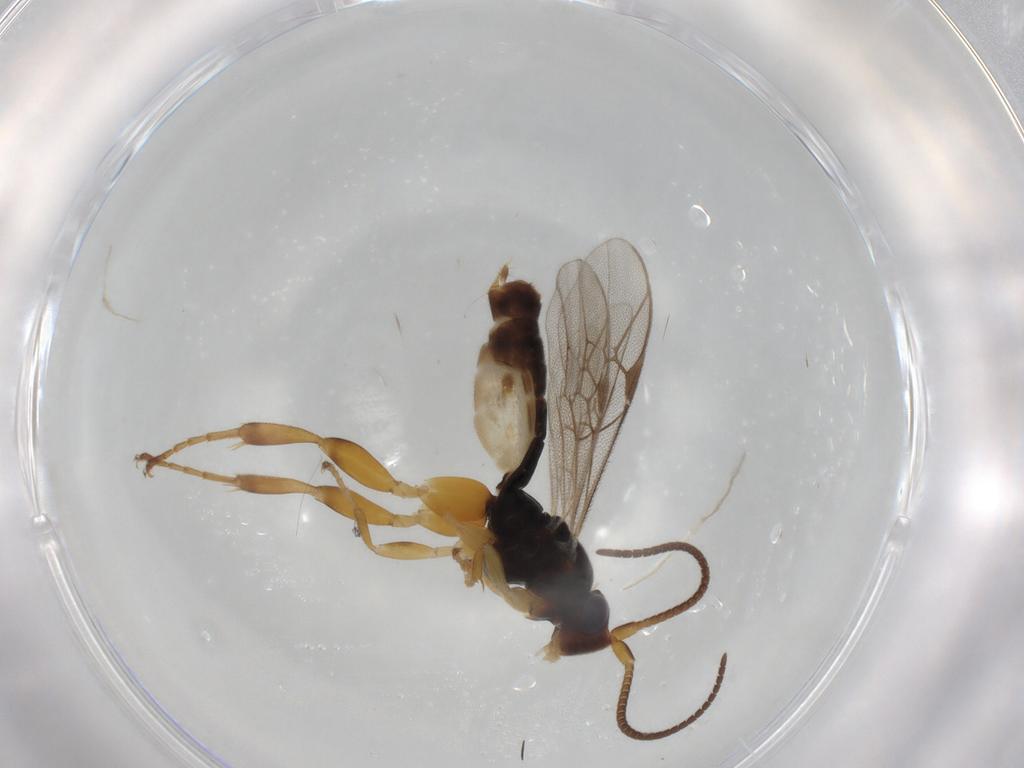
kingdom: Animalia
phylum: Arthropoda
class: Insecta
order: Hymenoptera
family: Ichneumonidae
